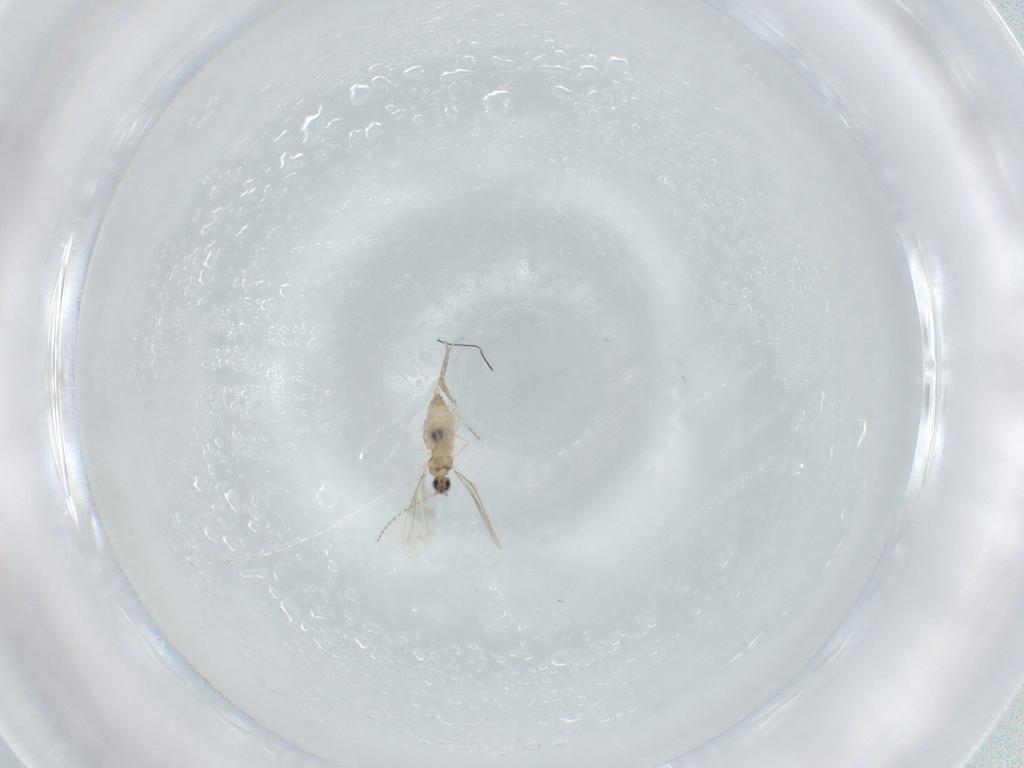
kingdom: Animalia
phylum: Arthropoda
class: Insecta
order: Diptera
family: Cecidomyiidae
